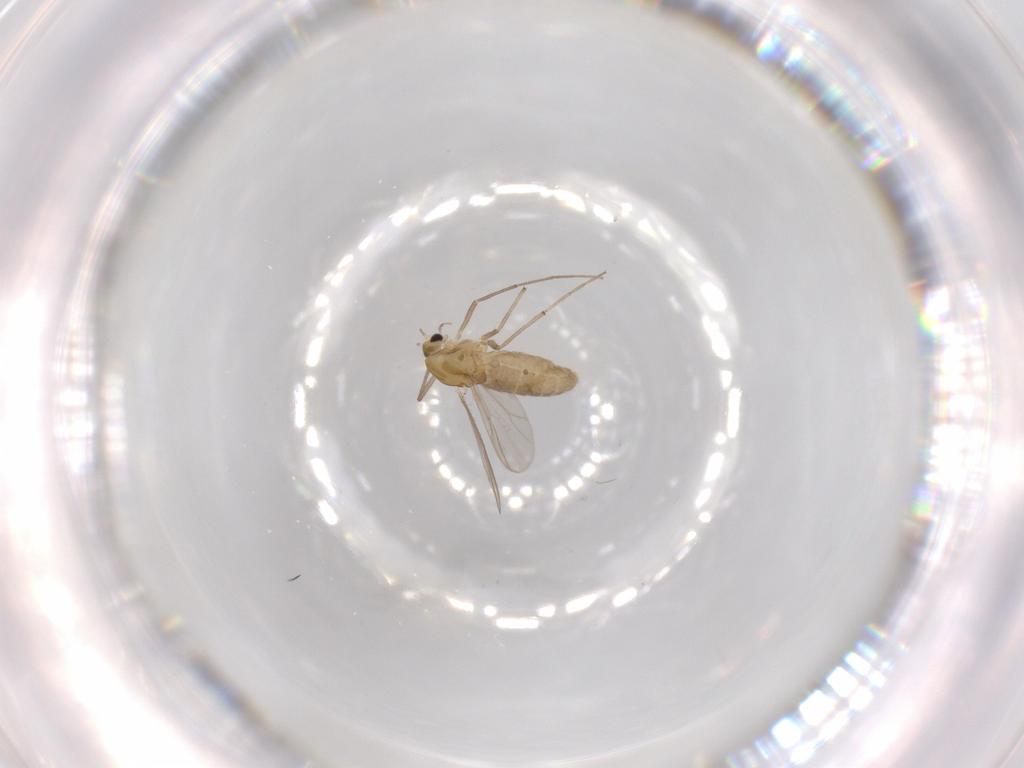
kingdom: Animalia
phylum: Arthropoda
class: Insecta
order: Diptera
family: Chironomidae
